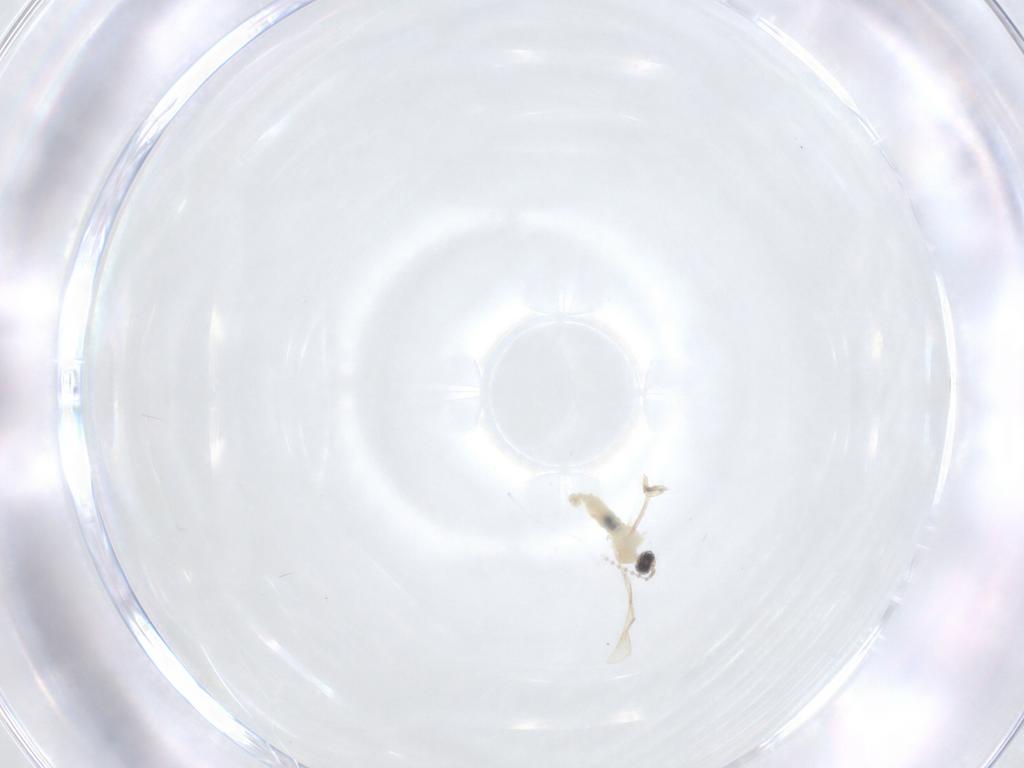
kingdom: Animalia
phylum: Arthropoda
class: Insecta
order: Diptera
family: Cecidomyiidae
